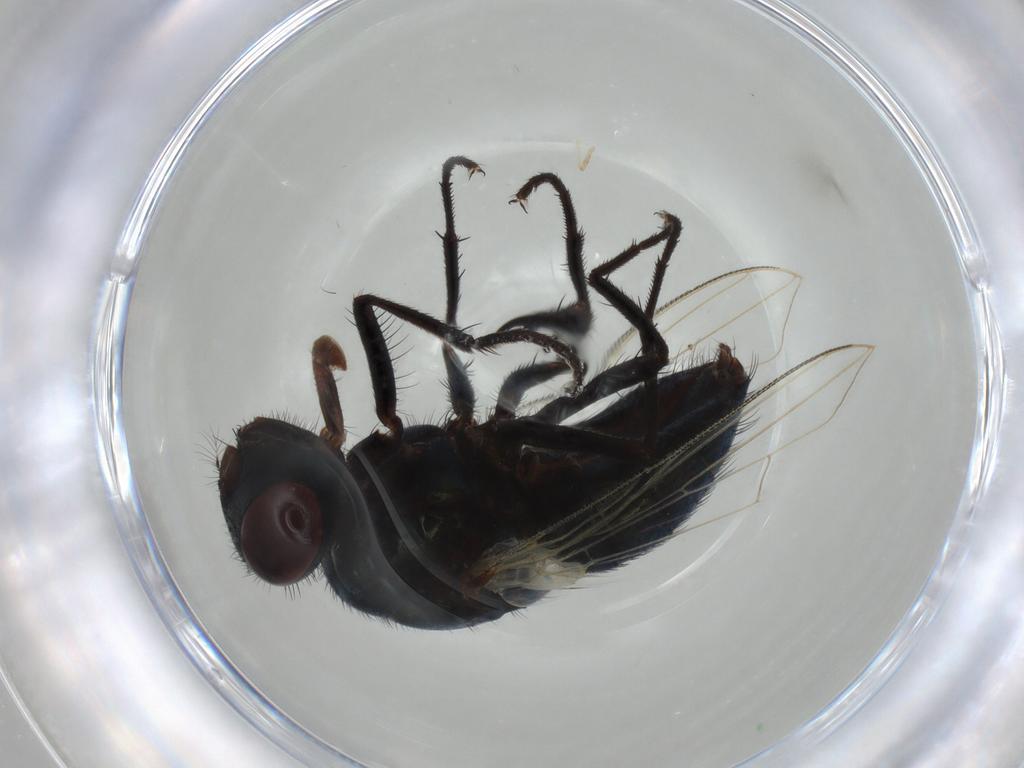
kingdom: Animalia
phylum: Arthropoda
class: Insecta
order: Diptera
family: Muscidae
